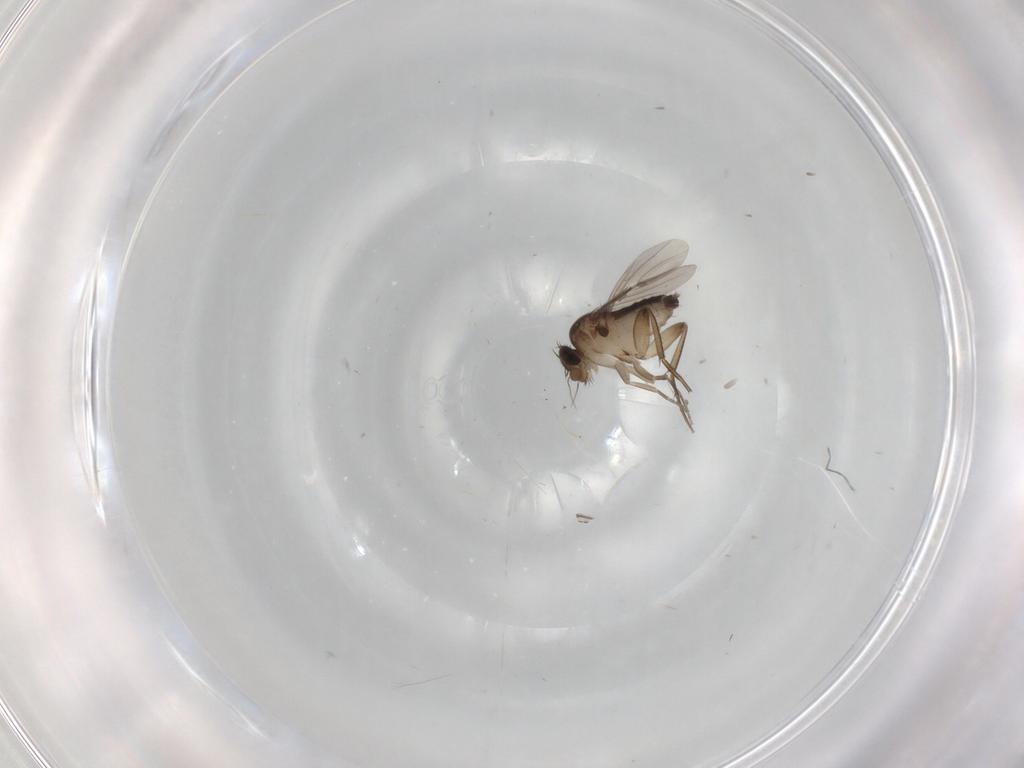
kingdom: Animalia
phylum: Arthropoda
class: Insecta
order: Diptera
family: Phoridae
